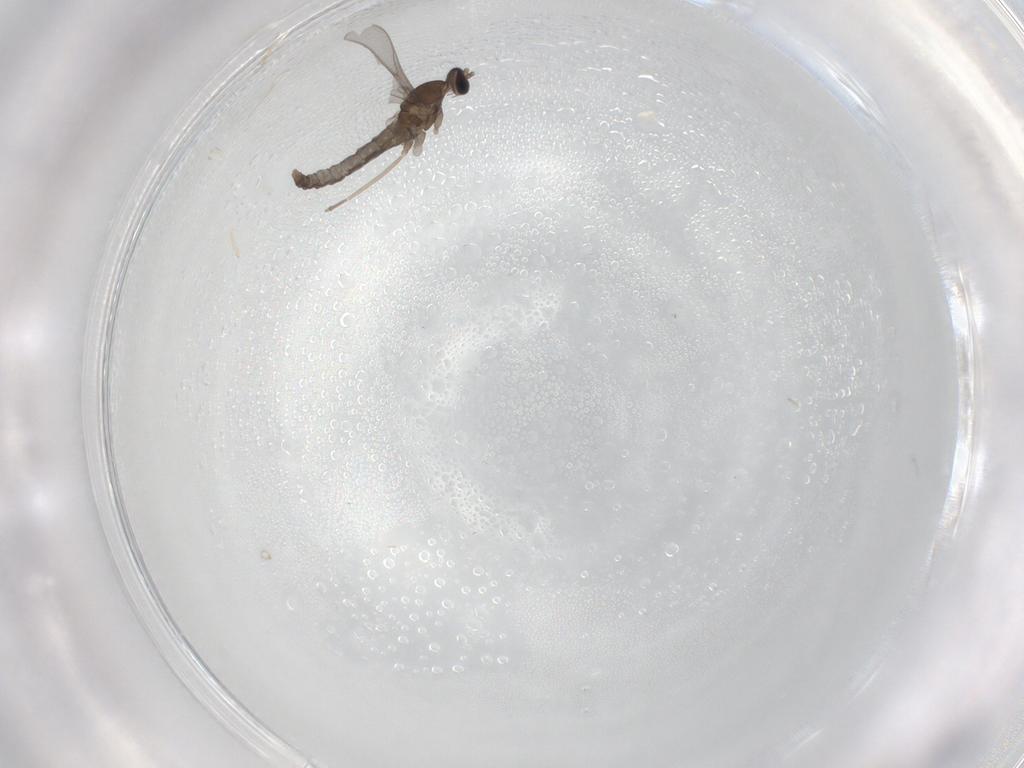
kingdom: Animalia
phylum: Arthropoda
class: Insecta
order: Diptera
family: Cecidomyiidae
